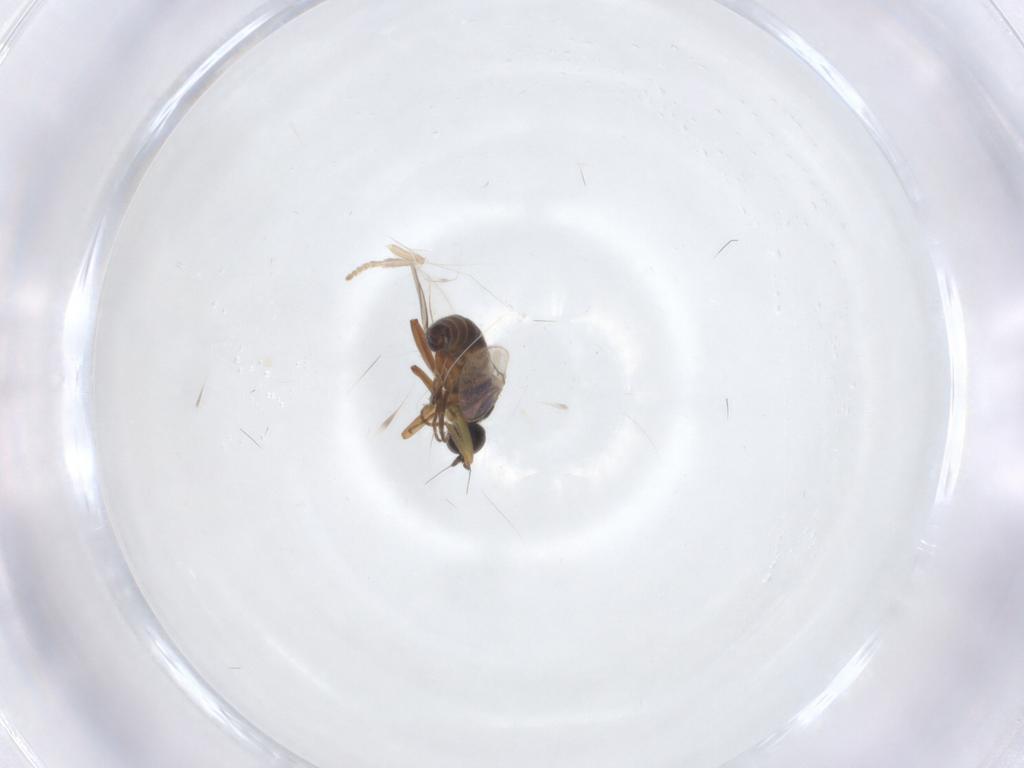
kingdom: Animalia
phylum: Arthropoda
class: Insecta
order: Diptera
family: Hybotidae
